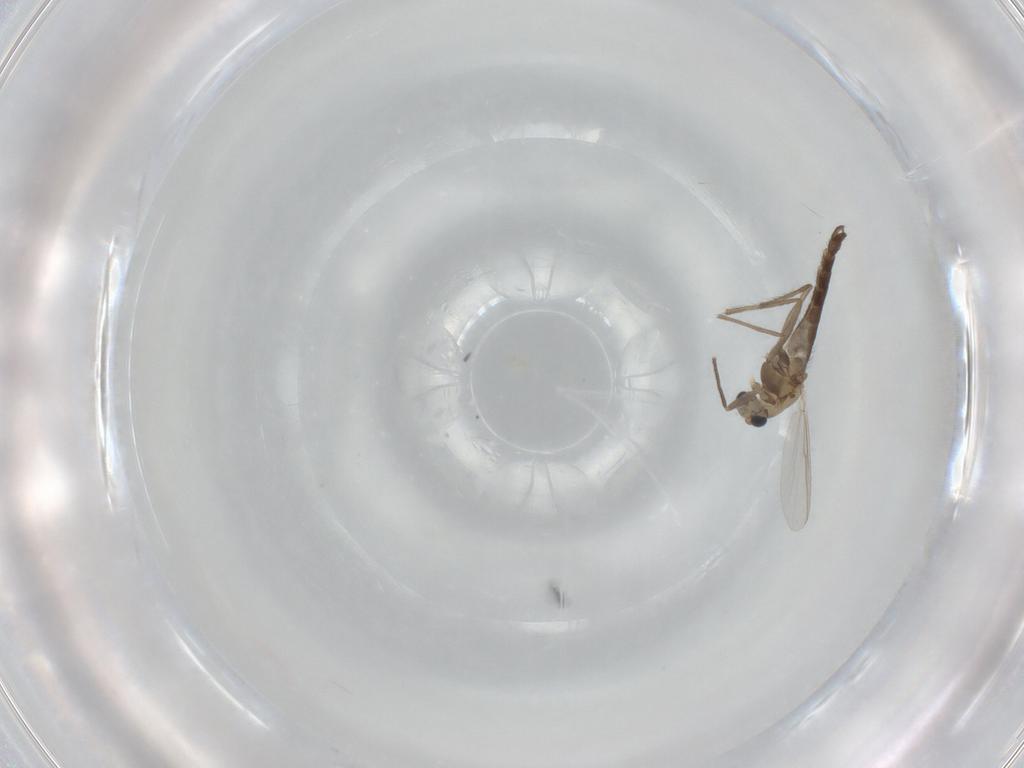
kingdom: Animalia
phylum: Arthropoda
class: Insecta
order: Diptera
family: Chironomidae
